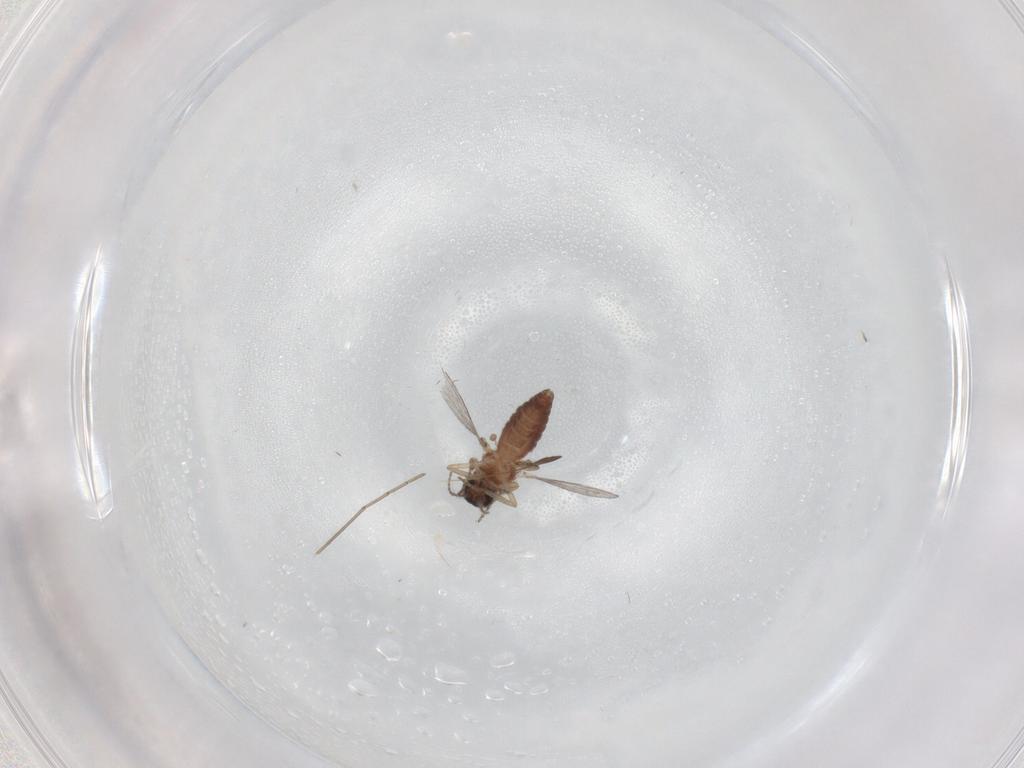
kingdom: Animalia
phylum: Arthropoda
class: Insecta
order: Diptera
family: Ceratopogonidae
